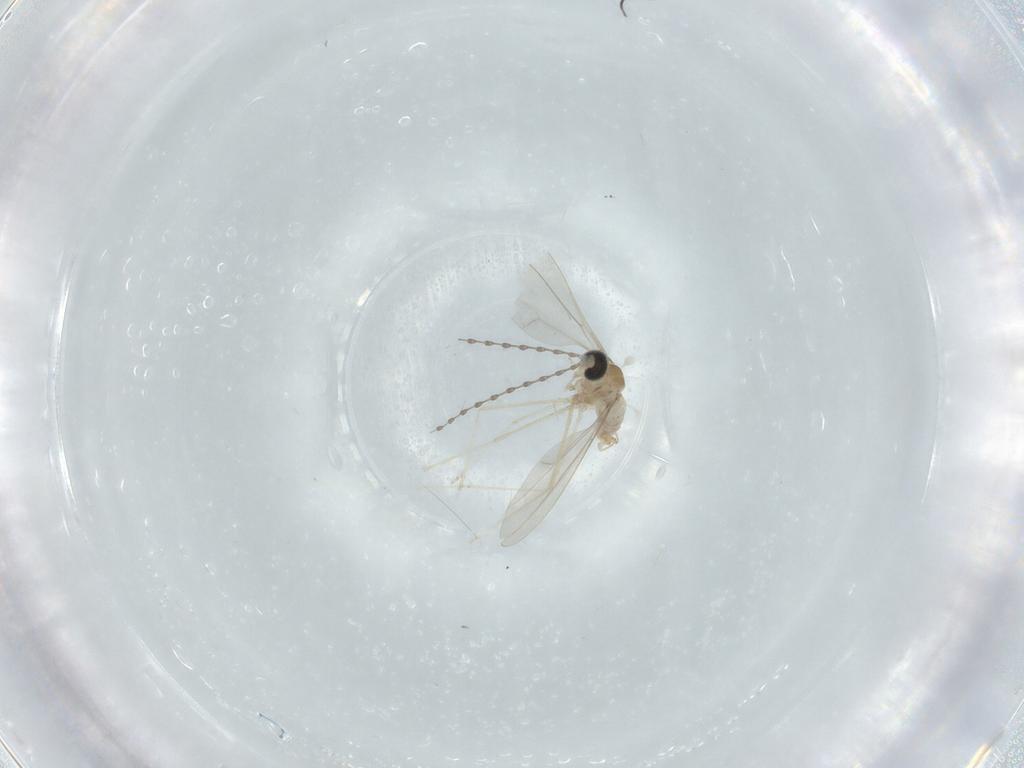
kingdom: Animalia
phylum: Arthropoda
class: Insecta
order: Diptera
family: Cecidomyiidae
